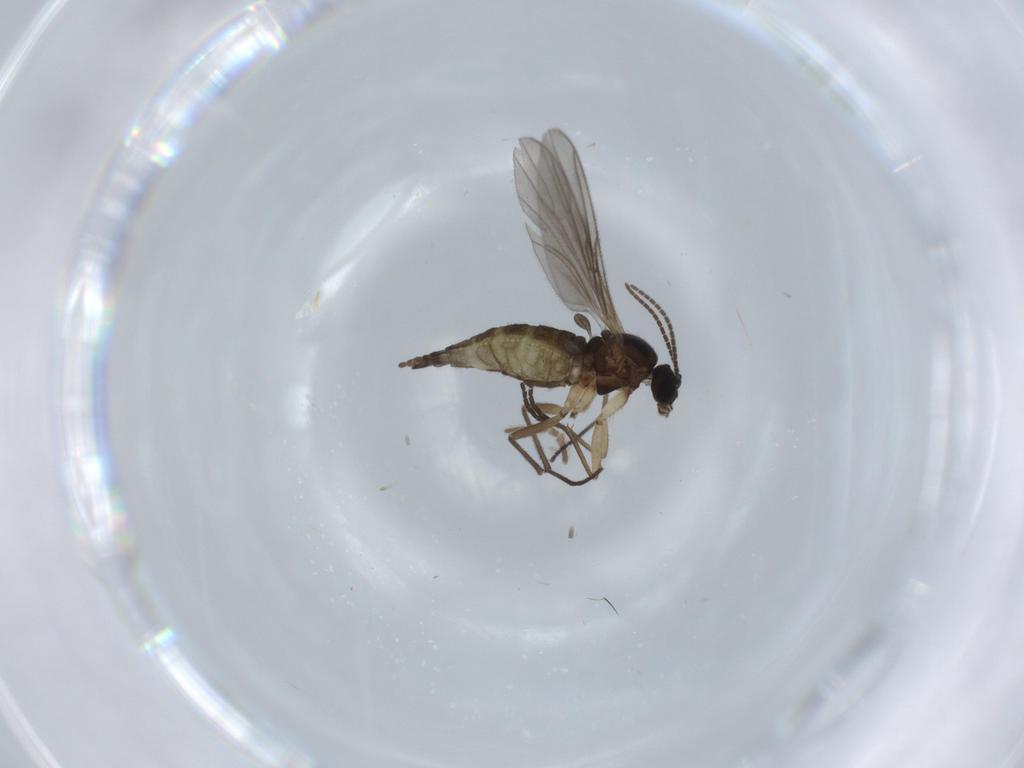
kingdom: Animalia
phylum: Arthropoda
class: Insecta
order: Diptera
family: Sciaridae
